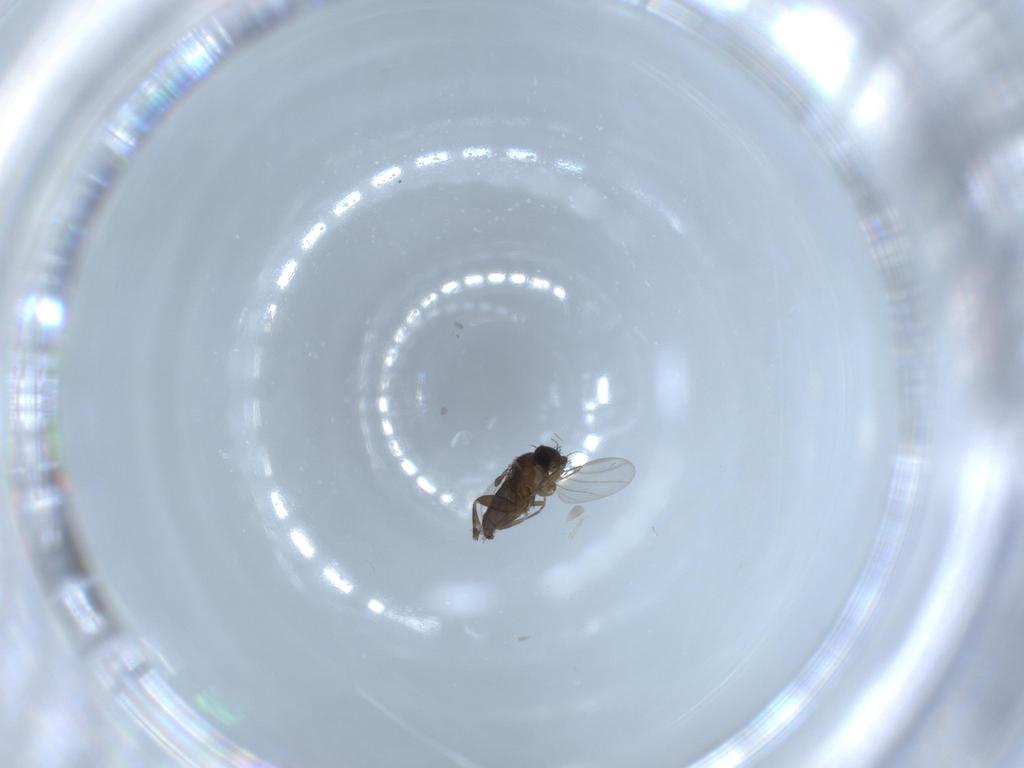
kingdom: Animalia
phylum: Arthropoda
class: Insecta
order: Diptera
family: Phoridae
